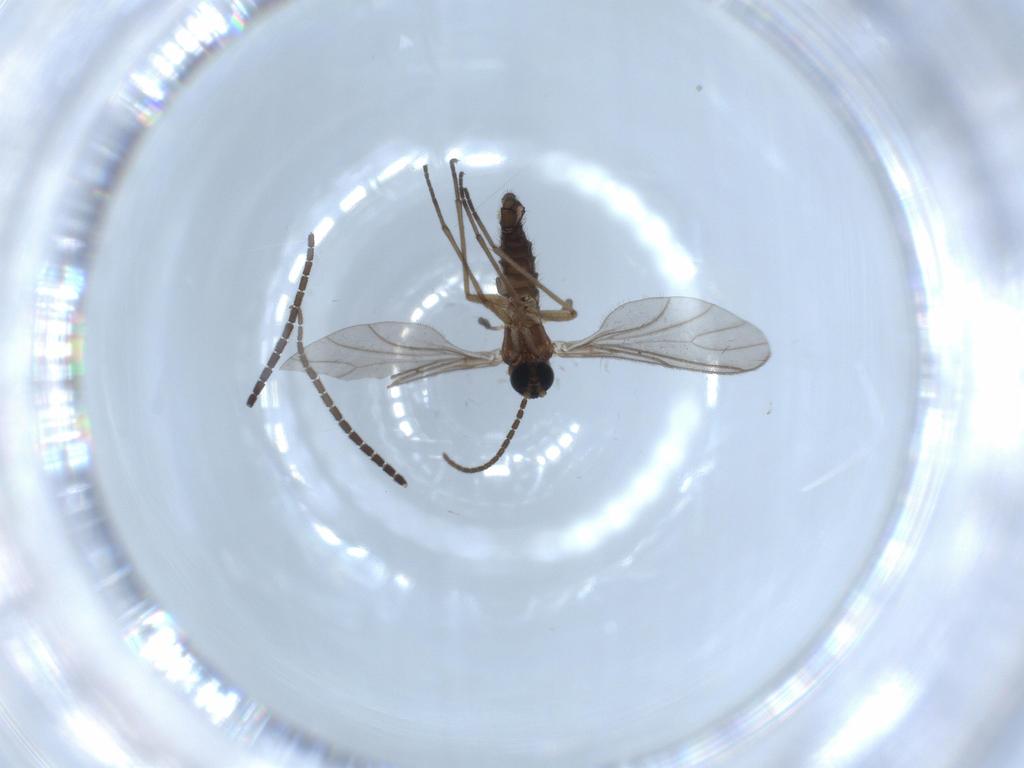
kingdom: Animalia
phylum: Arthropoda
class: Insecta
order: Diptera
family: Sciaridae
